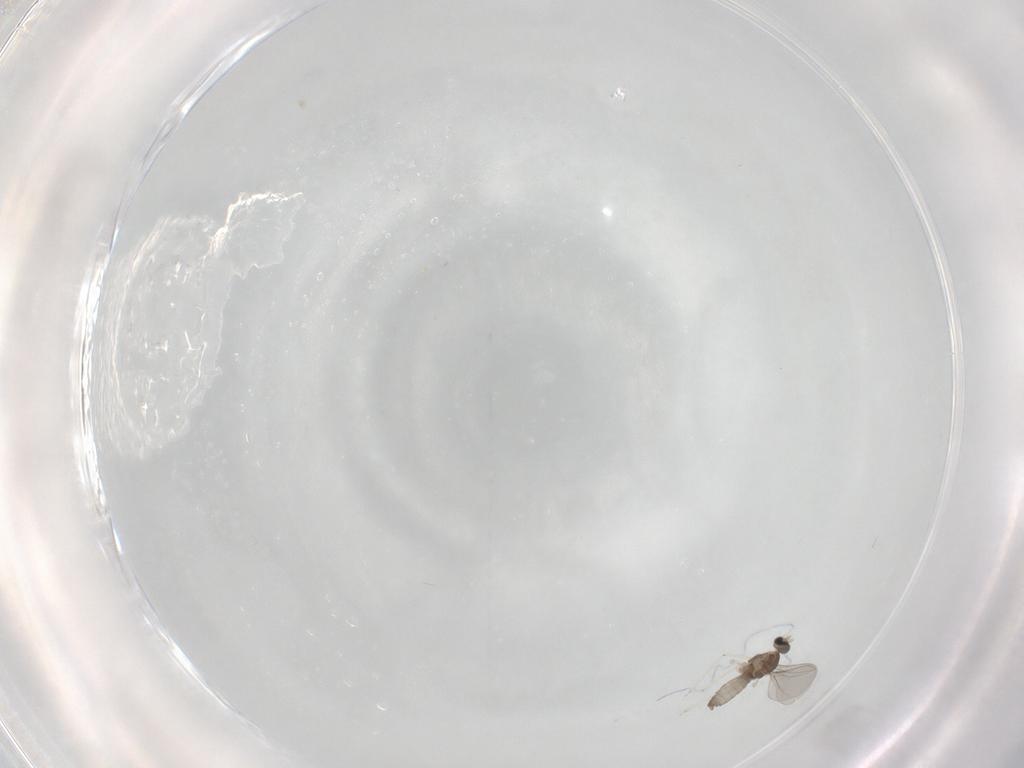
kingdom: Animalia
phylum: Arthropoda
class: Insecta
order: Diptera
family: Cecidomyiidae
